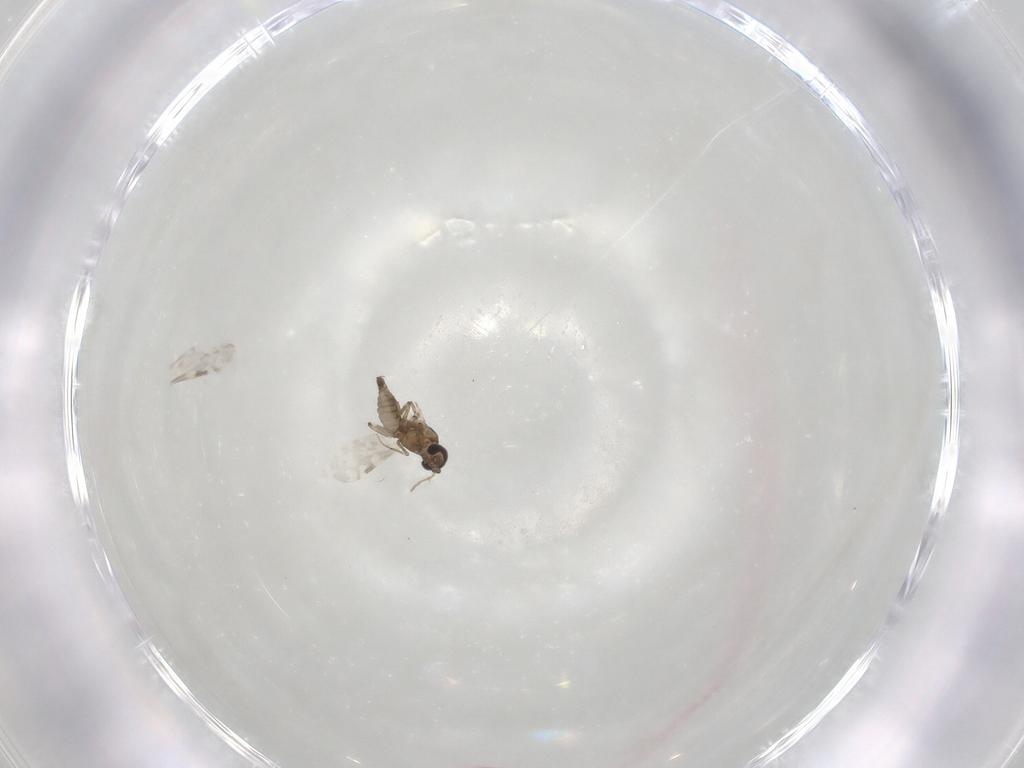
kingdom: Animalia
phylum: Arthropoda
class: Insecta
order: Diptera
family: Ceratopogonidae
